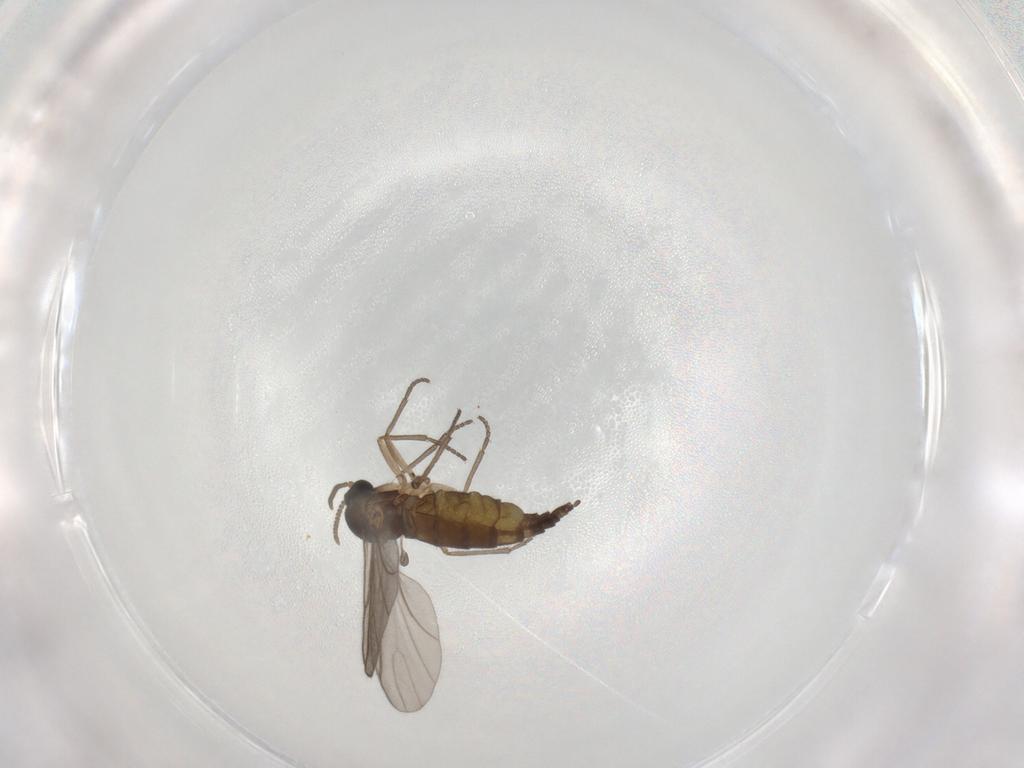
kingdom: Animalia
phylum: Arthropoda
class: Insecta
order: Diptera
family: Sciaridae
